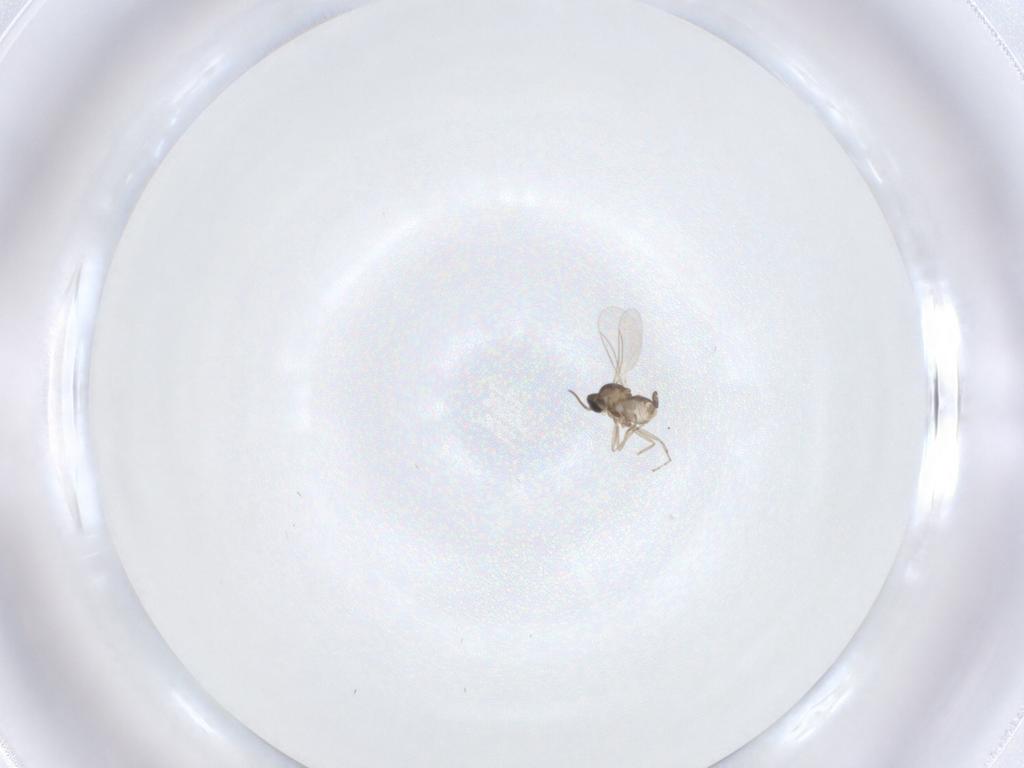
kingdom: Animalia
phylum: Arthropoda
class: Insecta
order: Diptera
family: Cecidomyiidae
